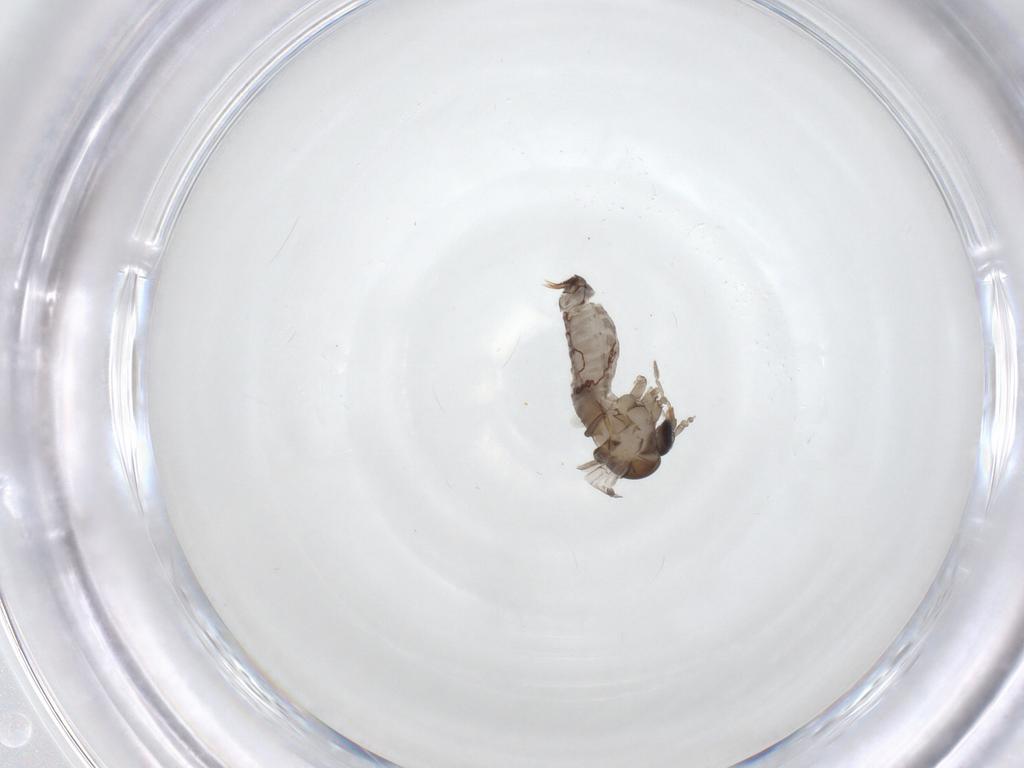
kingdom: Animalia
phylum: Arthropoda
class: Insecta
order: Diptera
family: Psychodidae
